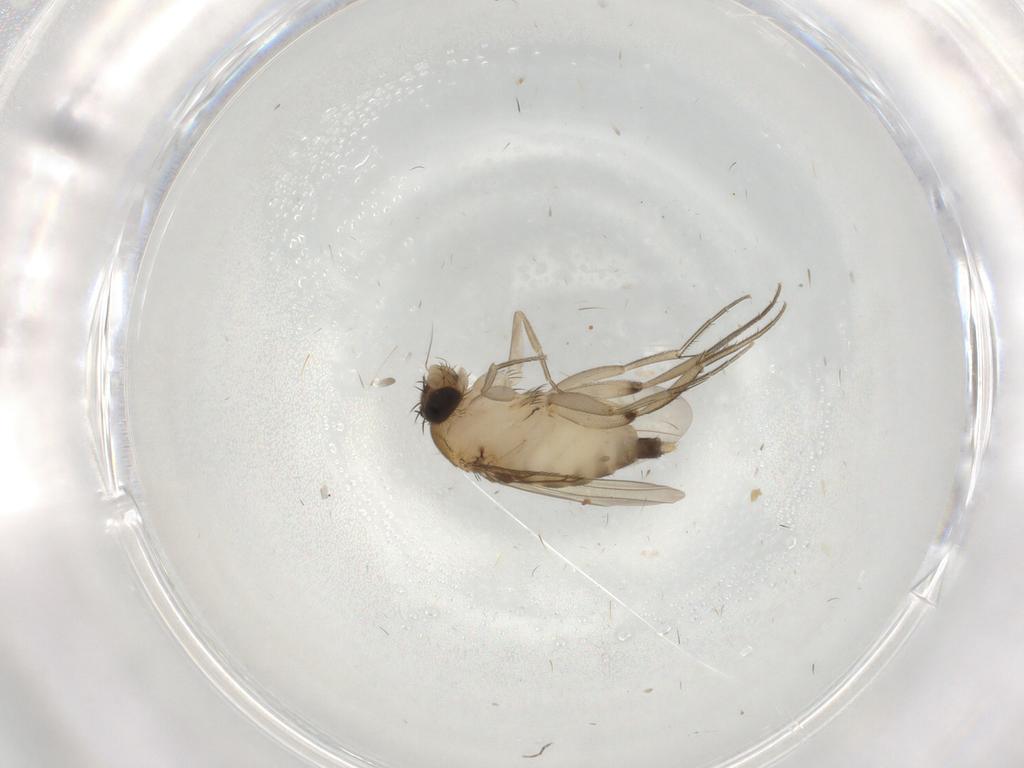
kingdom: Animalia
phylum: Arthropoda
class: Insecta
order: Diptera
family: Phoridae
